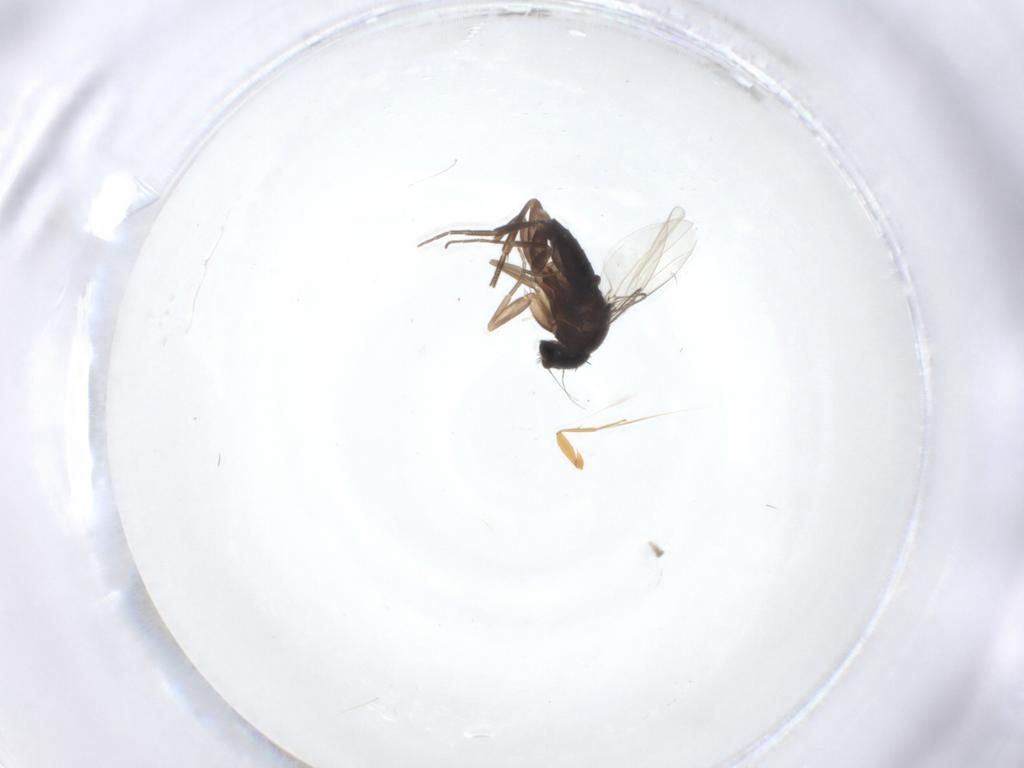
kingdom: Animalia
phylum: Arthropoda
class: Insecta
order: Diptera
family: Phoridae
